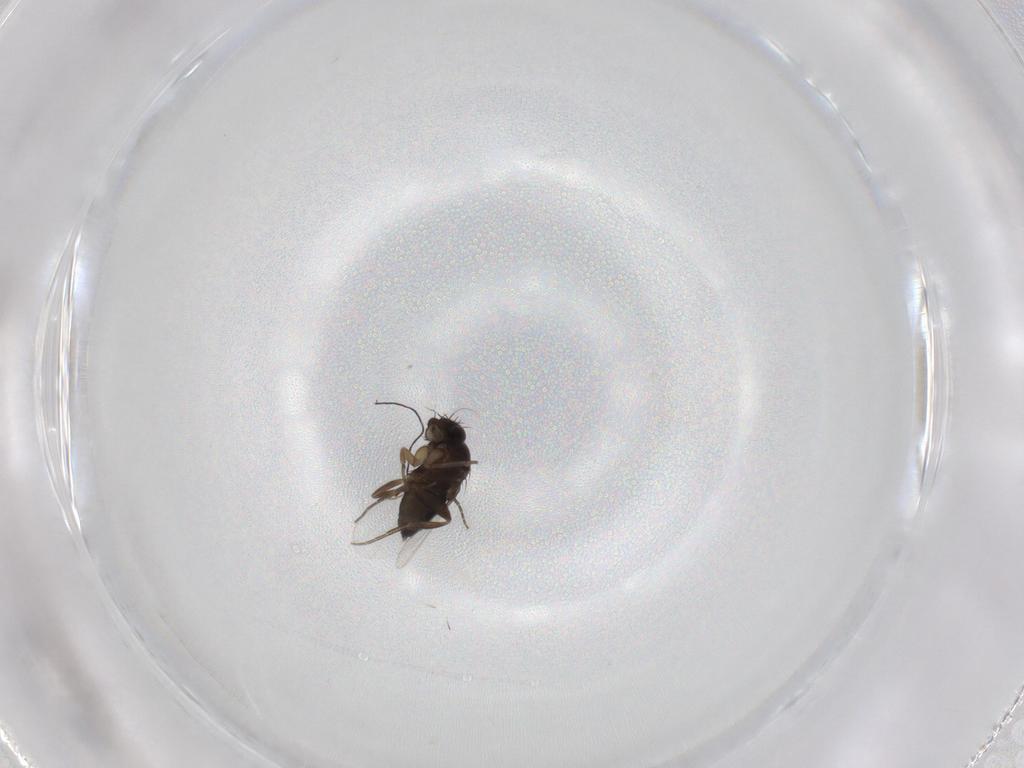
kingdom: Animalia
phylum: Arthropoda
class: Insecta
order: Diptera
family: Phoridae
